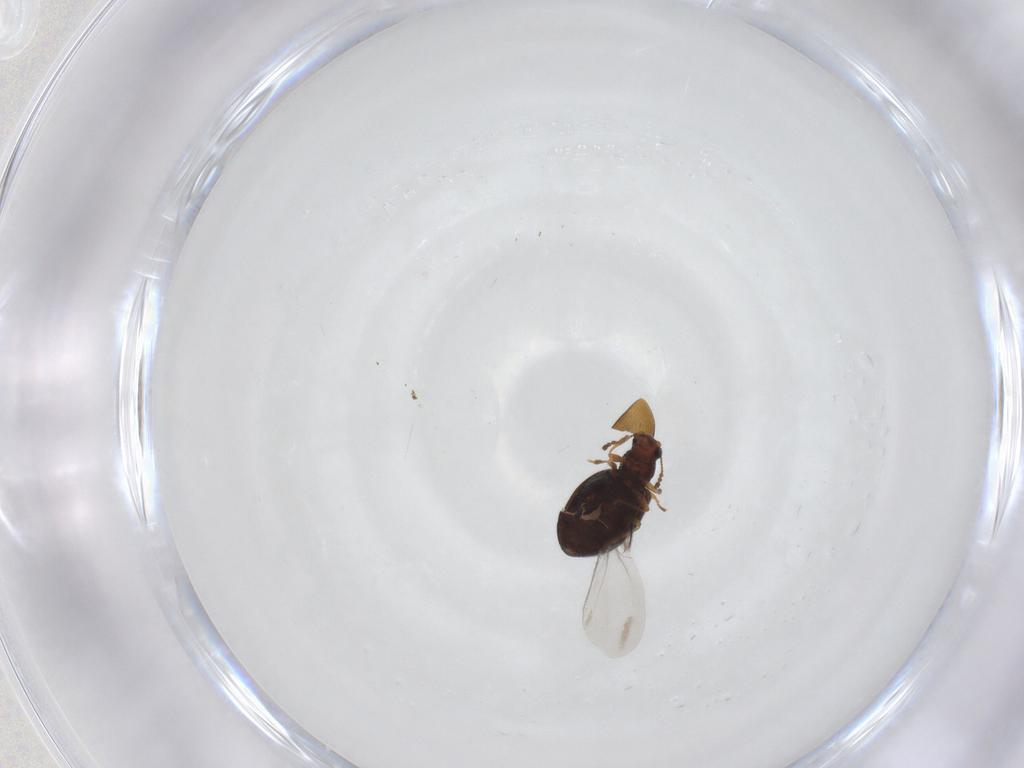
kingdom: Animalia
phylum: Arthropoda
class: Insecta
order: Coleoptera
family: Latridiidae
